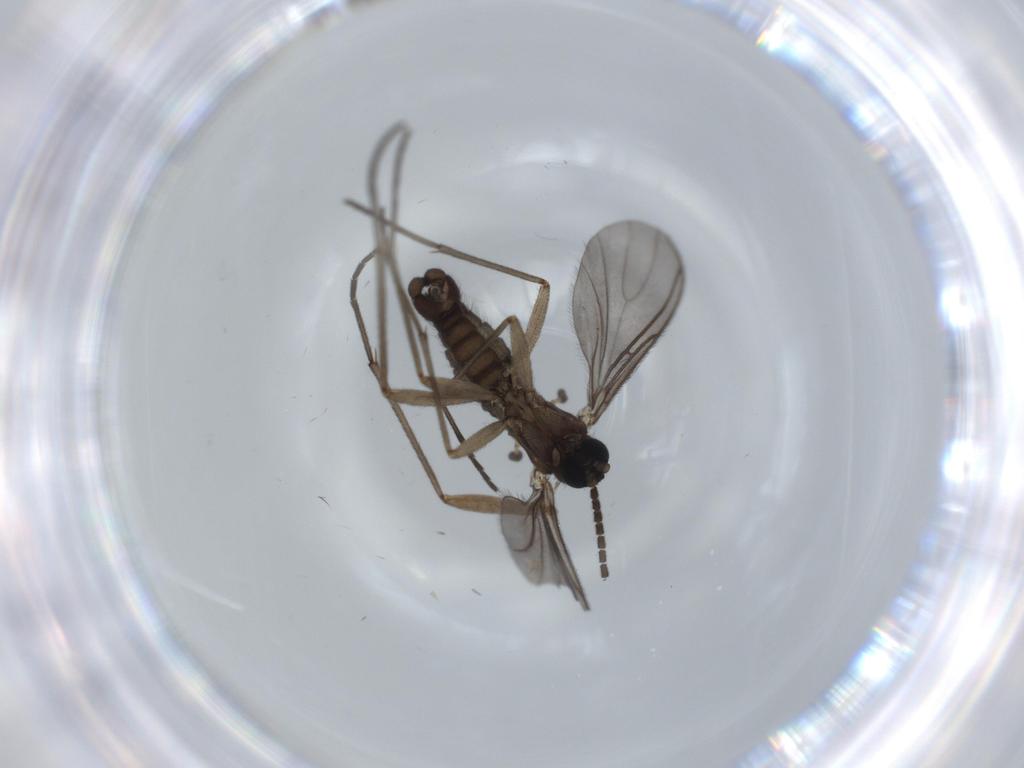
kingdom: Animalia
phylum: Arthropoda
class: Insecta
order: Diptera
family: Sciaridae
